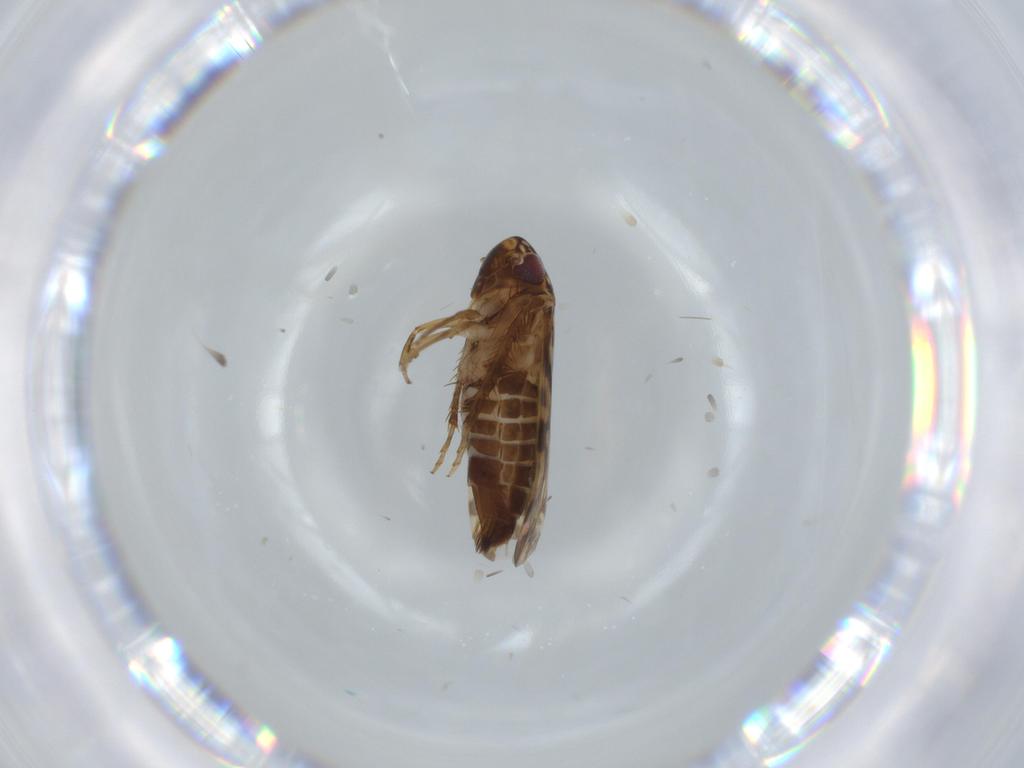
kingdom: Animalia
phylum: Arthropoda
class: Insecta
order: Hemiptera
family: Cicadellidae
